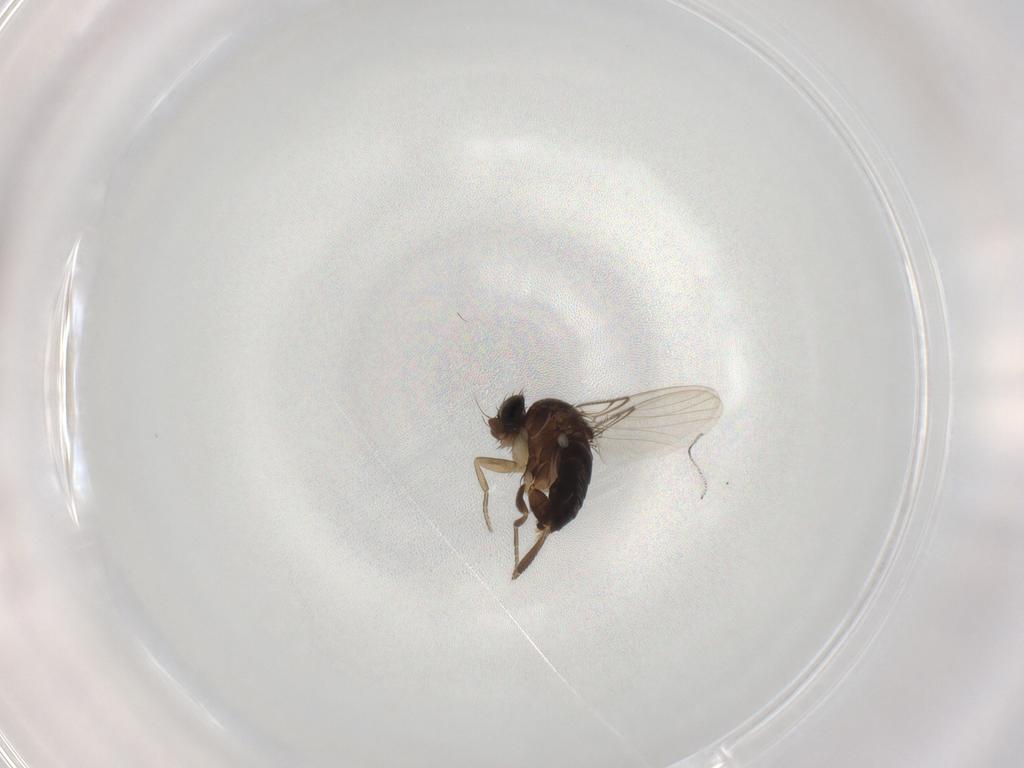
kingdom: Animalia
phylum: Arthropoda
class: Insecta
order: Diptera
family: Phoridae
